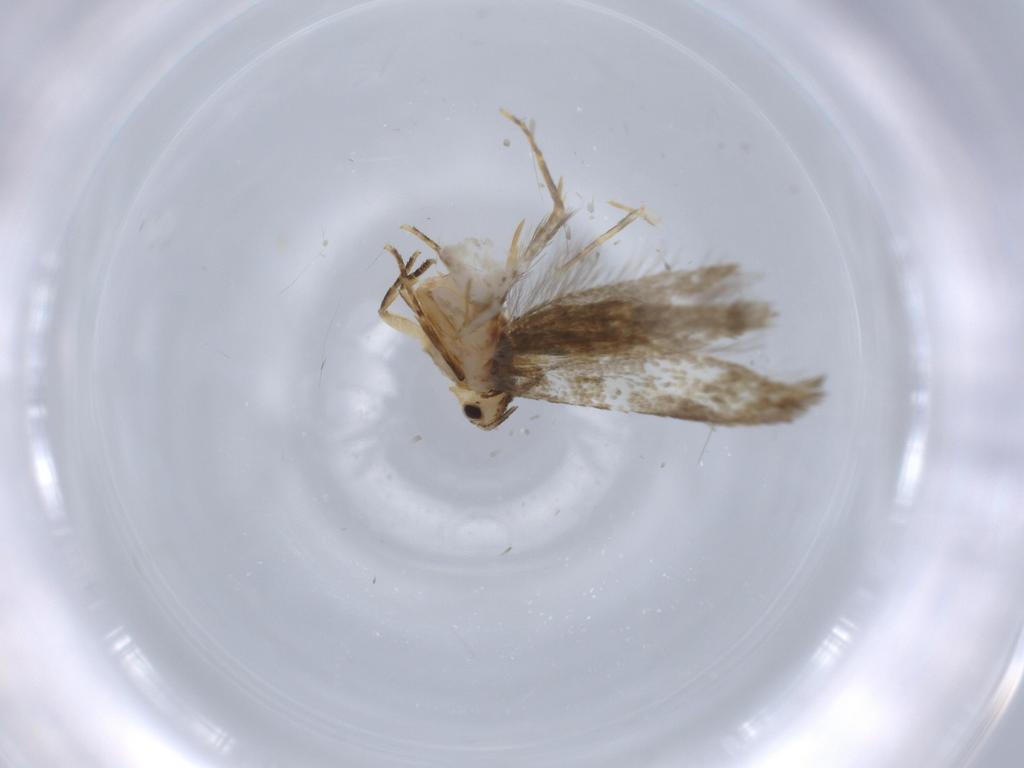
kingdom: Animalia
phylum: Arthropoda
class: Insecta
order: Lepidoptera
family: Tineidae
